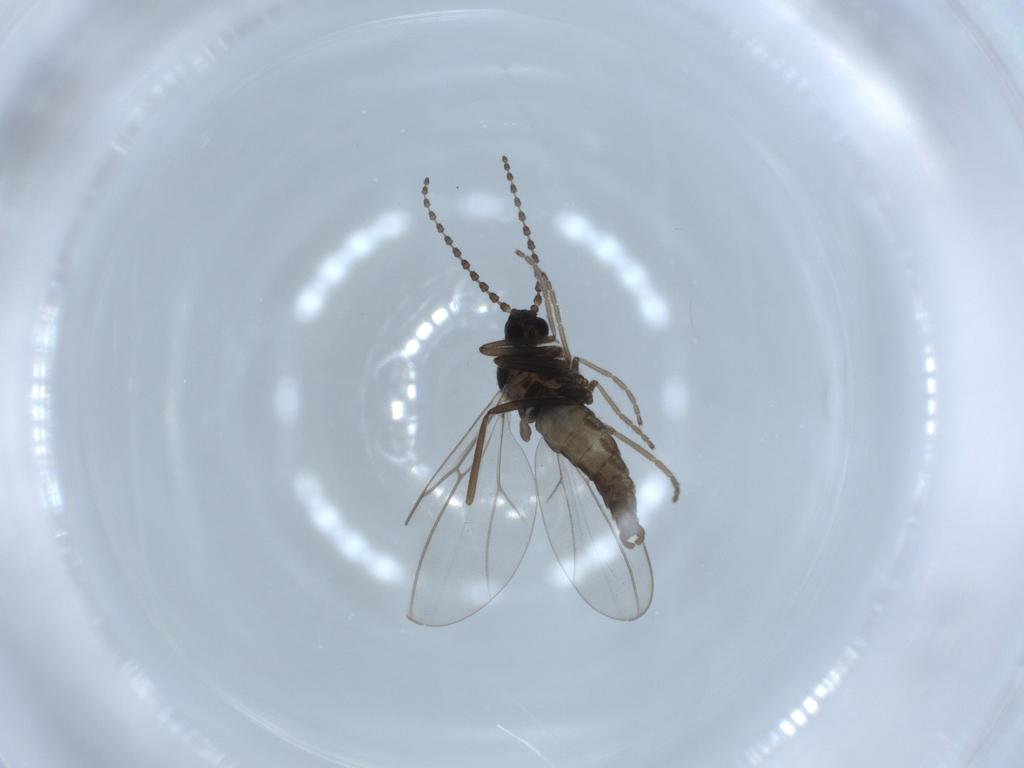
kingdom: Animalia
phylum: Arthropoda
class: Insecta
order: Diptera
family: Cecidomyiidae
